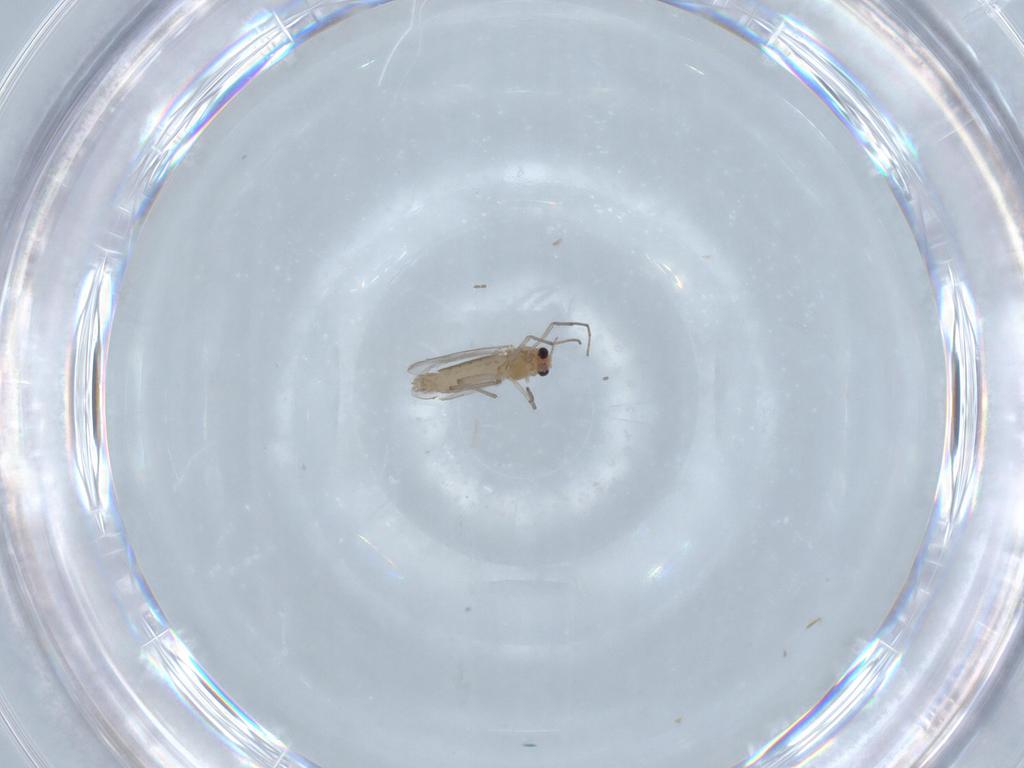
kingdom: Animalia
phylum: Arthropoda
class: Insecta
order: Diptera
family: Chironomidae
